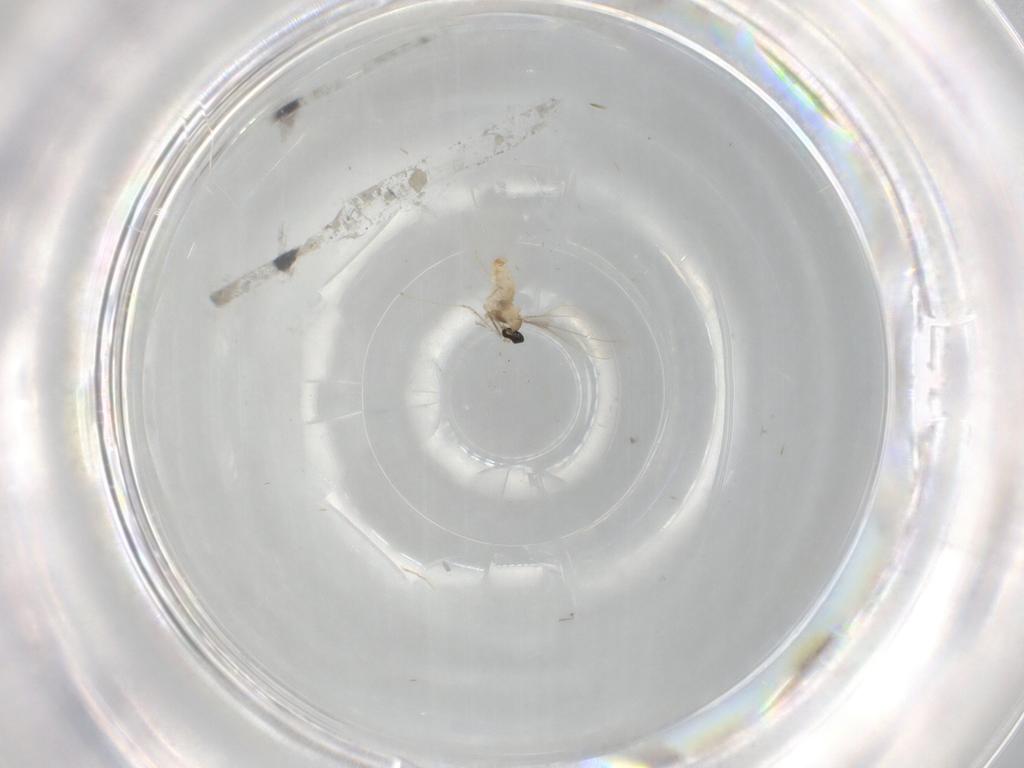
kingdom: Animalia
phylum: Arthropoda
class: Insecta
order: Diptera
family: Cecidomyiidae
